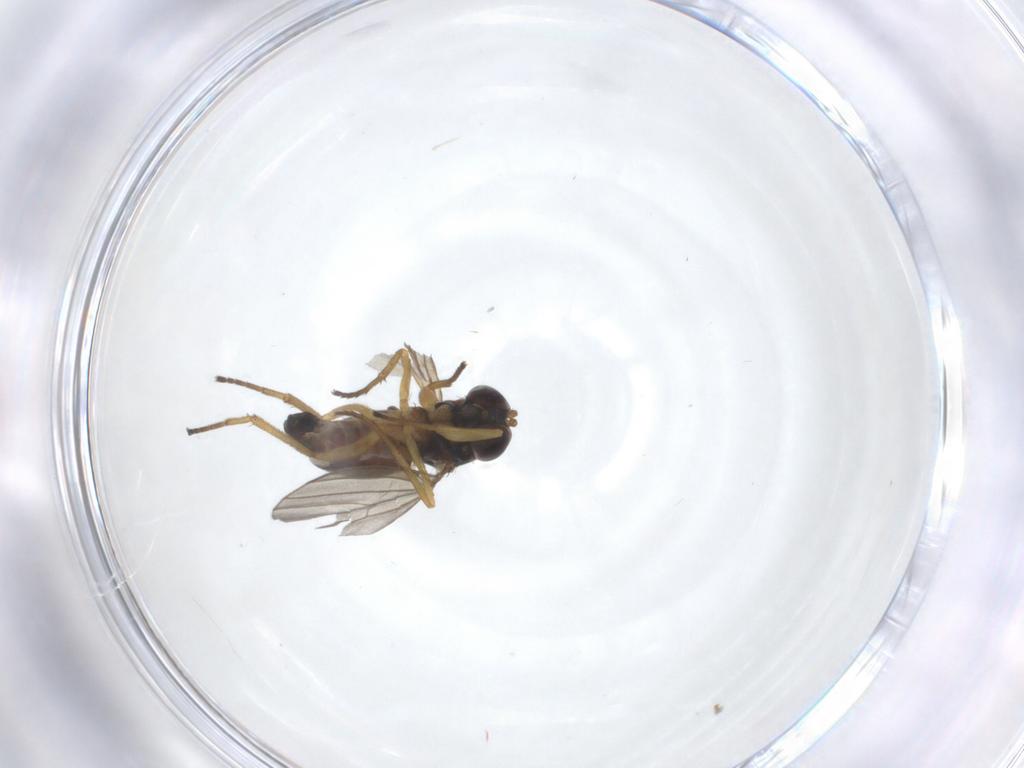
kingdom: Animalia
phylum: Arthropoda
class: Insecta
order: Diptera
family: Dolichopodidae
